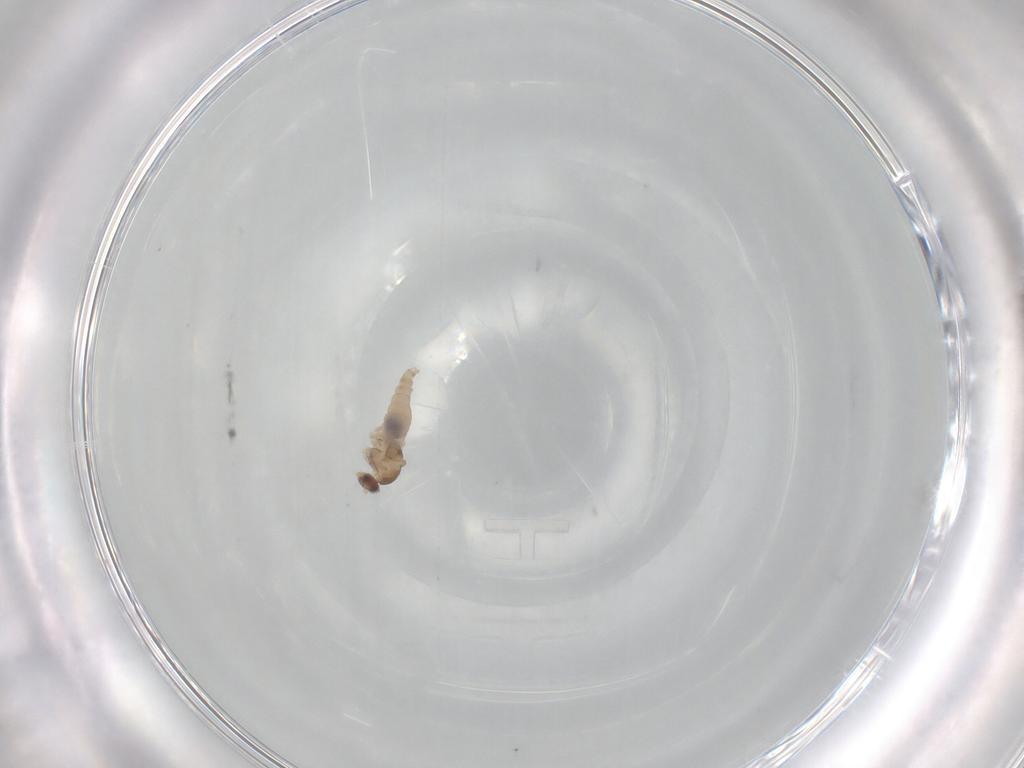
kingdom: Animalia
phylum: Arthropoda
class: Insecta
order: Diptera
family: Cecidomyiidae
